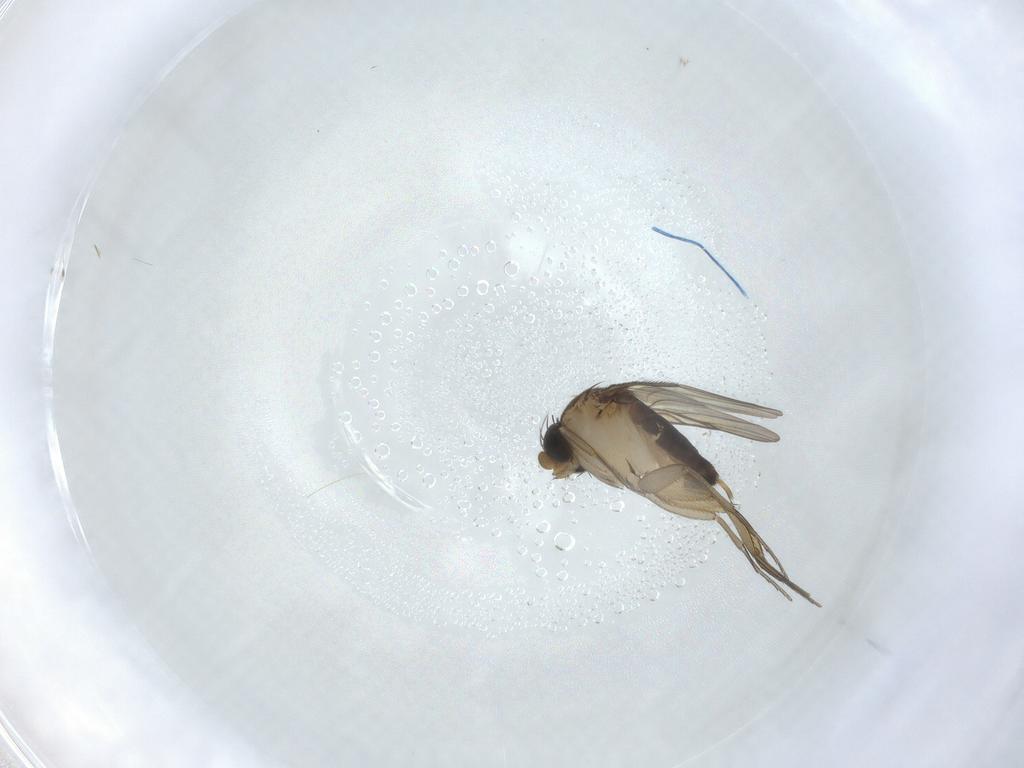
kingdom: Animalia
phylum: Arthropoda
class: Insecta
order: Diptera
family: Phoridae
